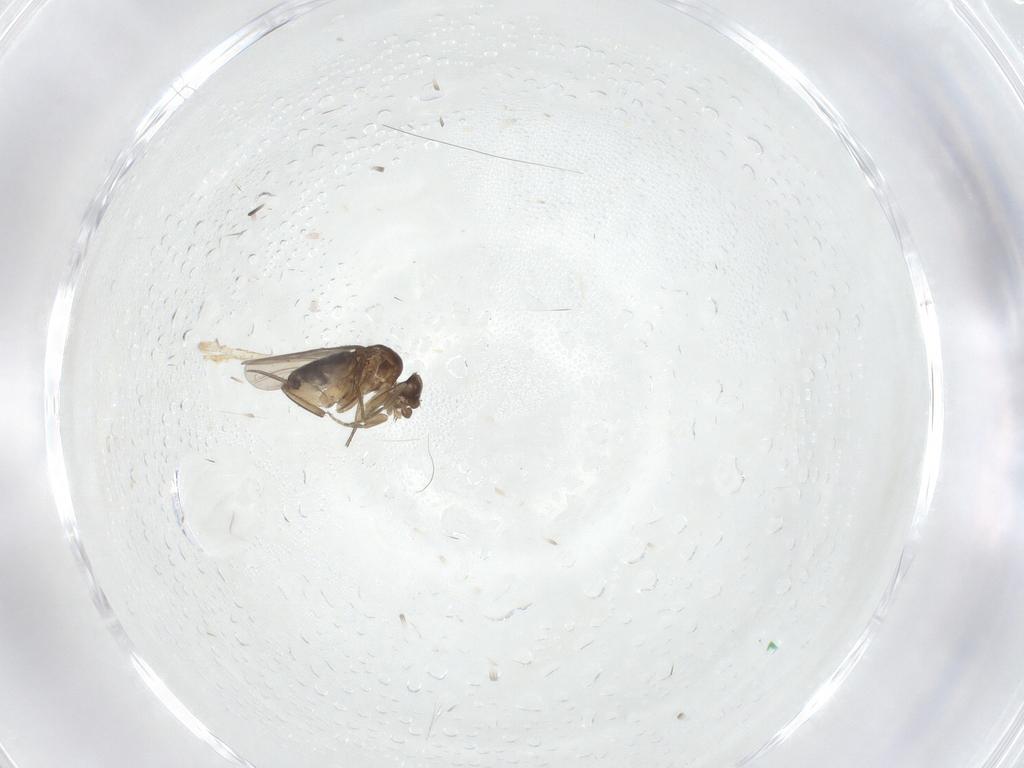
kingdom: Animalia
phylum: Arthropoda
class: Insecta
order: Diptera
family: Phoridae
